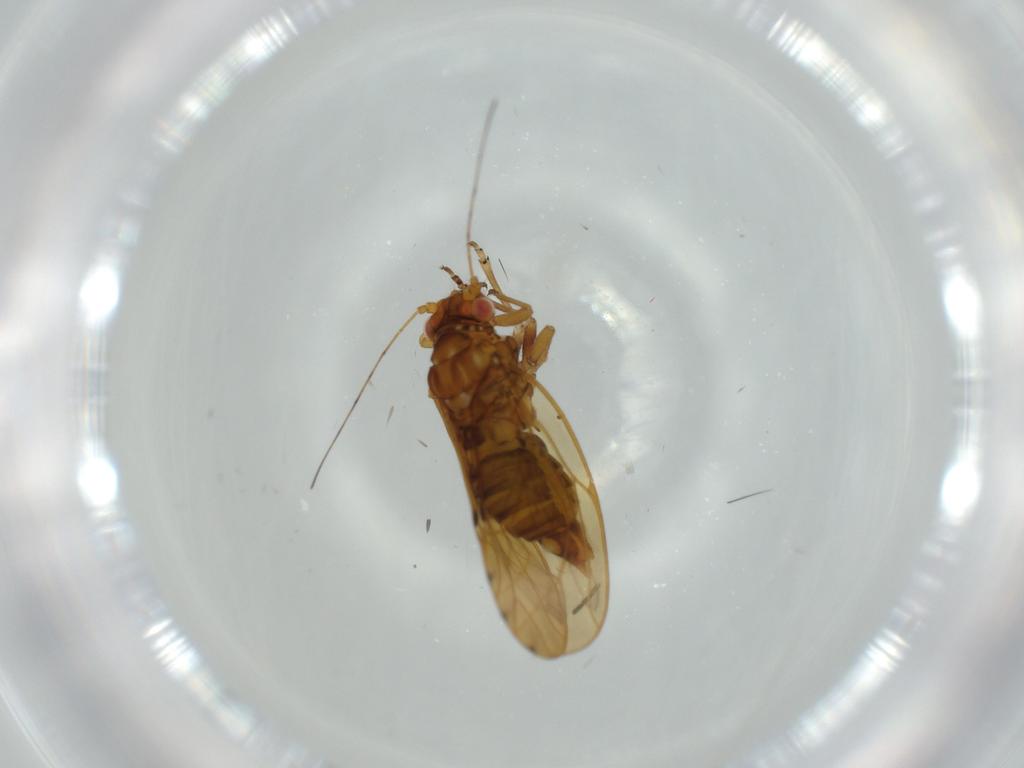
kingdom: Animalia
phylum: Arthropoda
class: Insecta
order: Hemiptera
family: Psylloidea_incertae_sedis
